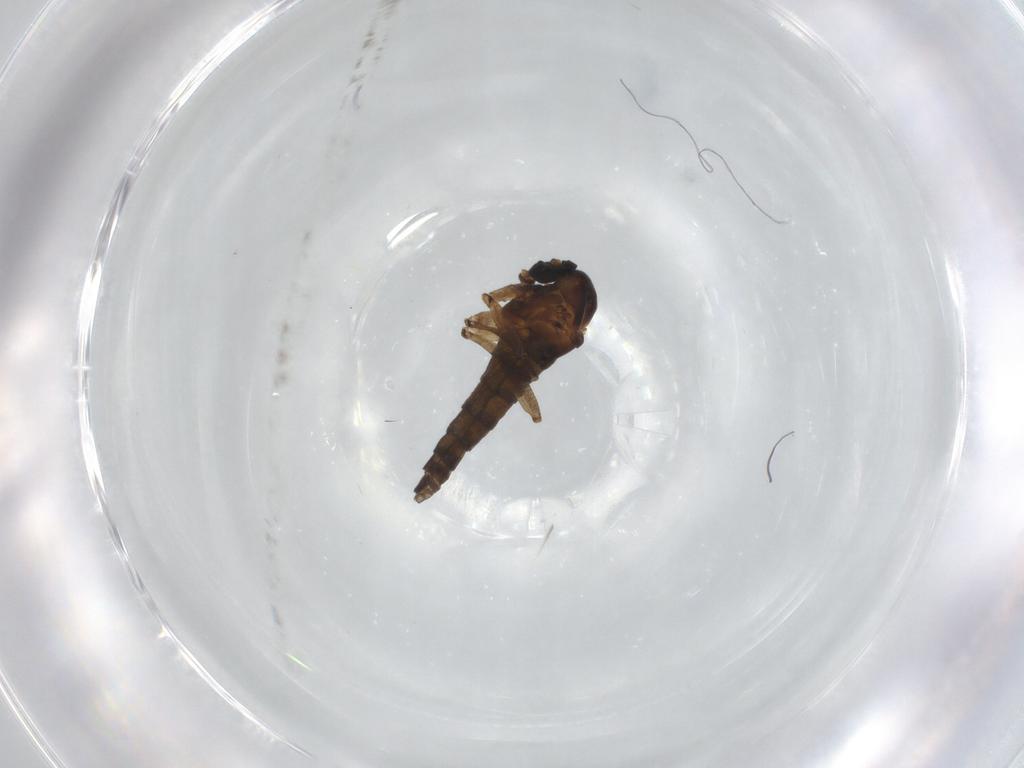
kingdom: Animalia
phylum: Arthropoda
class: Insecta
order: Diptera
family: Sciaridae
